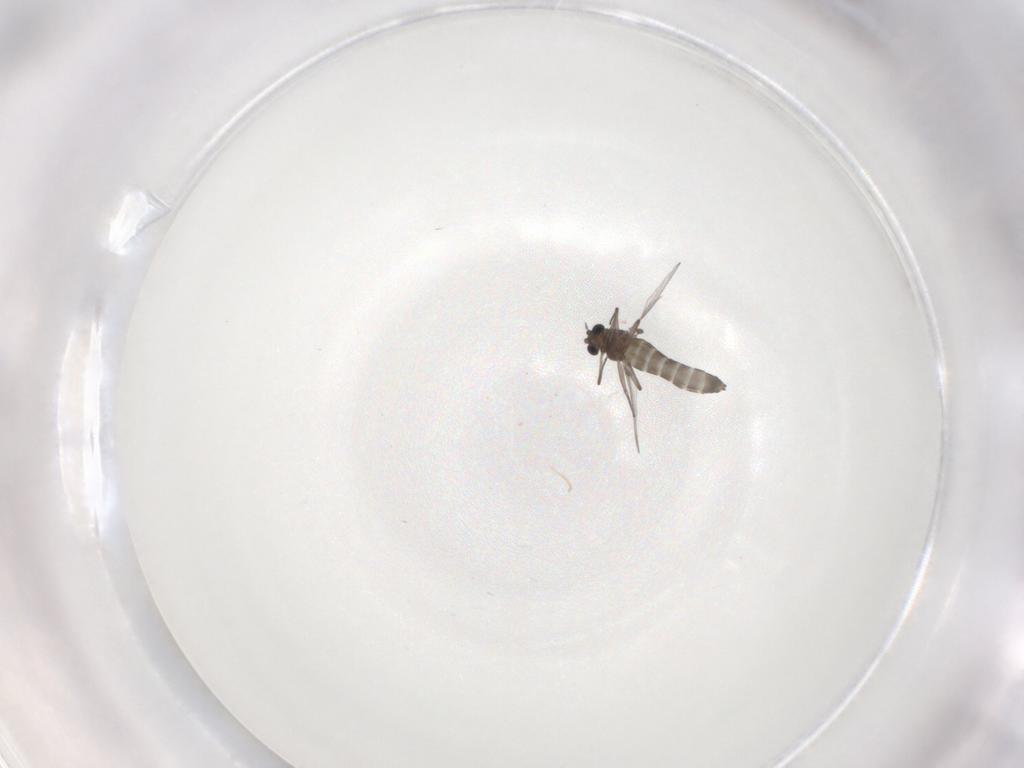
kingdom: Animalia
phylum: Arthropoda
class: Insecta
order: Diptera
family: Chironomidae
